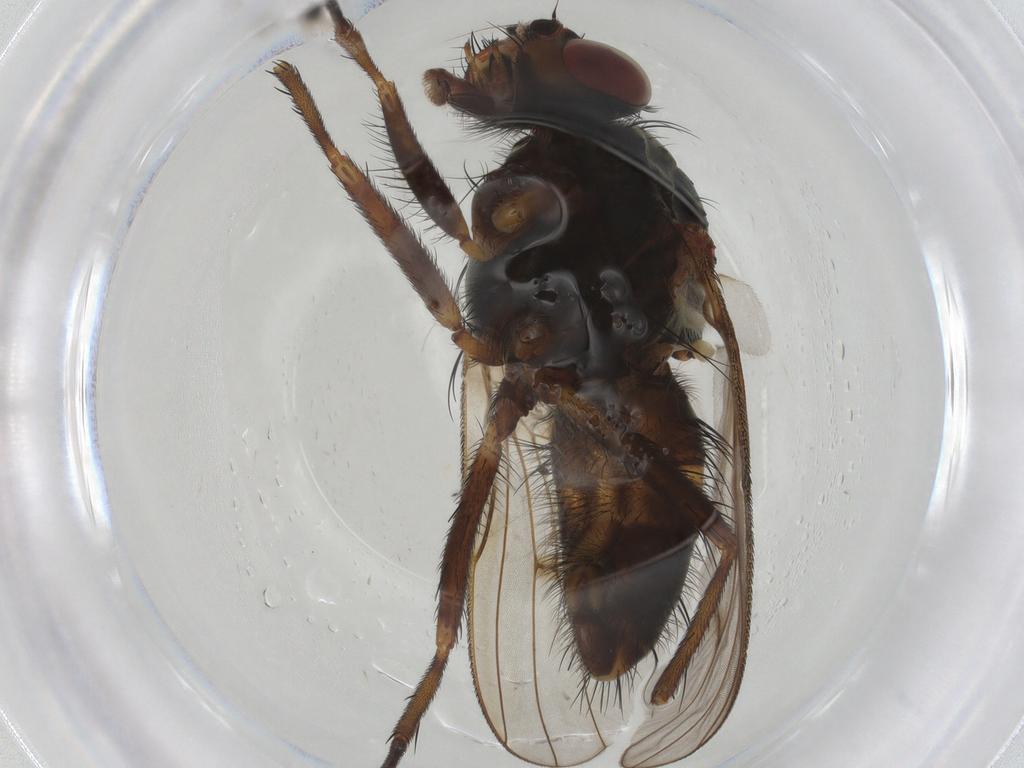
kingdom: Animalia
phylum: Arthropoda
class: Insecta
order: Diptera
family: Anthomyiidae
